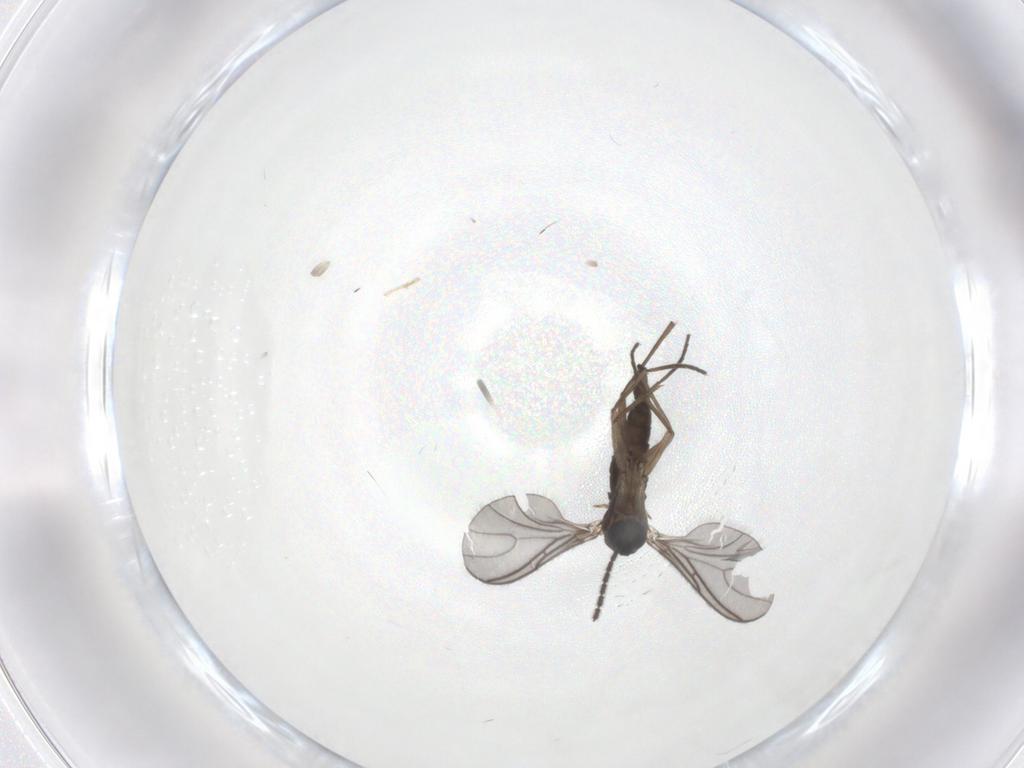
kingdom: Animalia
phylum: Arthropoda
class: Insecta
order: Diptera
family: Sciaridae
